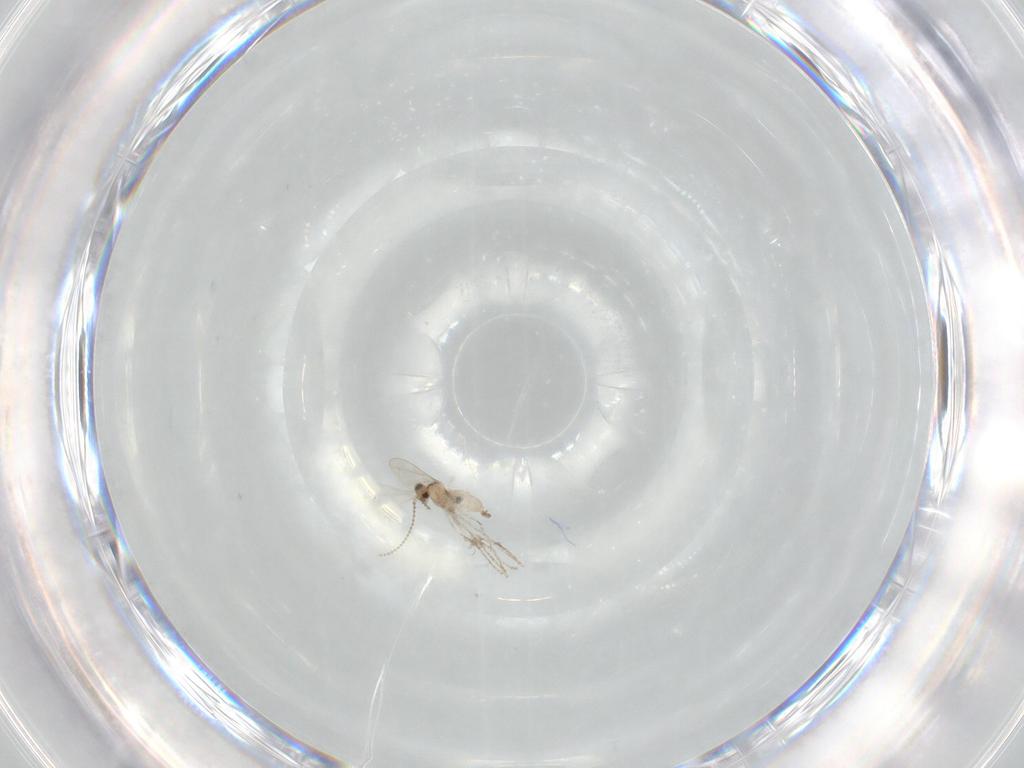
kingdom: Animalia
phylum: Arthropoda
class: Insecta
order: Diptera
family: Cecidomyiidae
